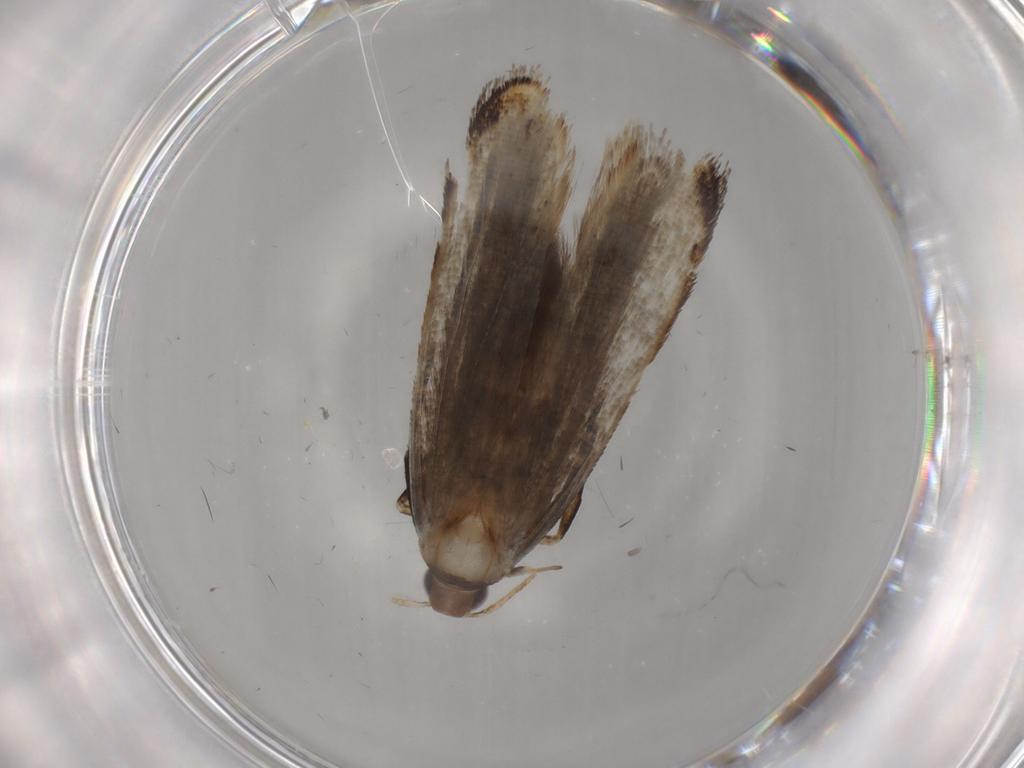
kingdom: Animalia
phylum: Arthropoda
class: Insecta
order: Lepidoptera
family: Gelechiidae
